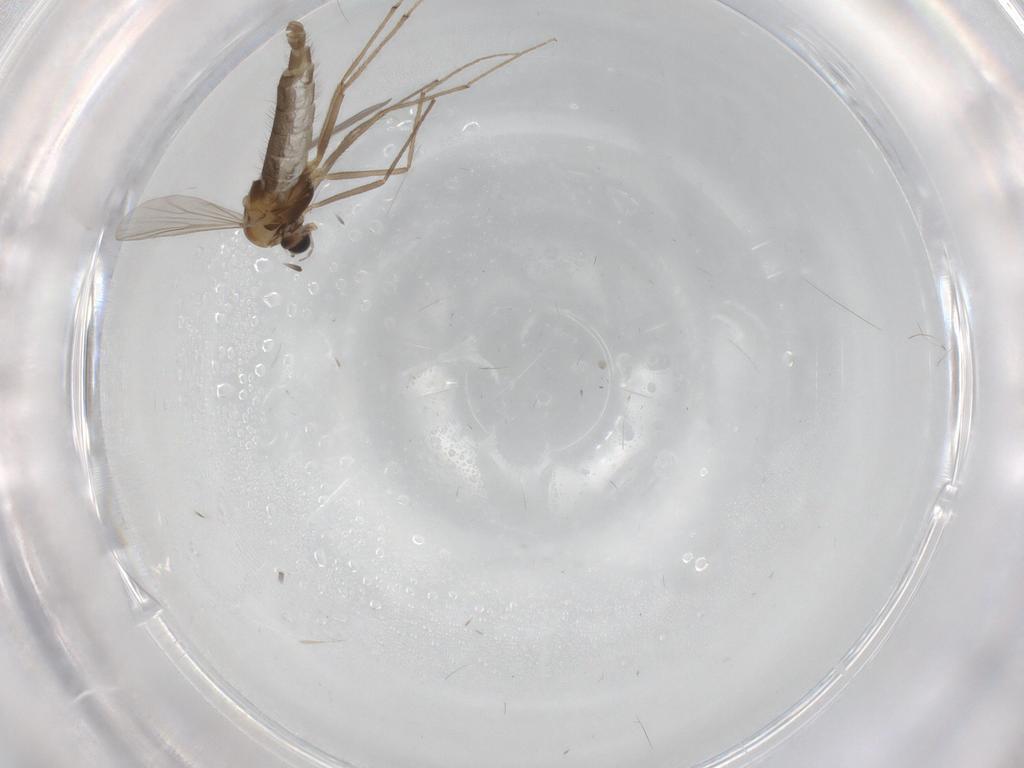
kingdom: Animalia
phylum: Arthropoda
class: Insecta
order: Diptera
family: Chironomidae
